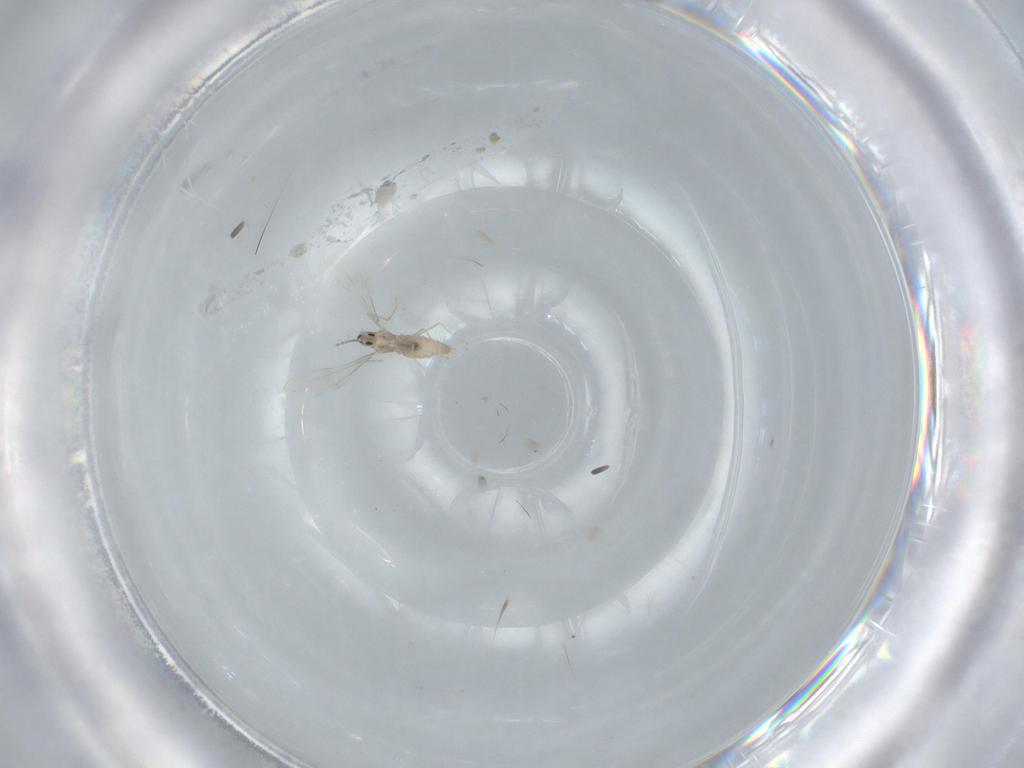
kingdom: Animalia
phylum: Arthropoda
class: Insecta
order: Diptera
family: Cecidomyiidae
